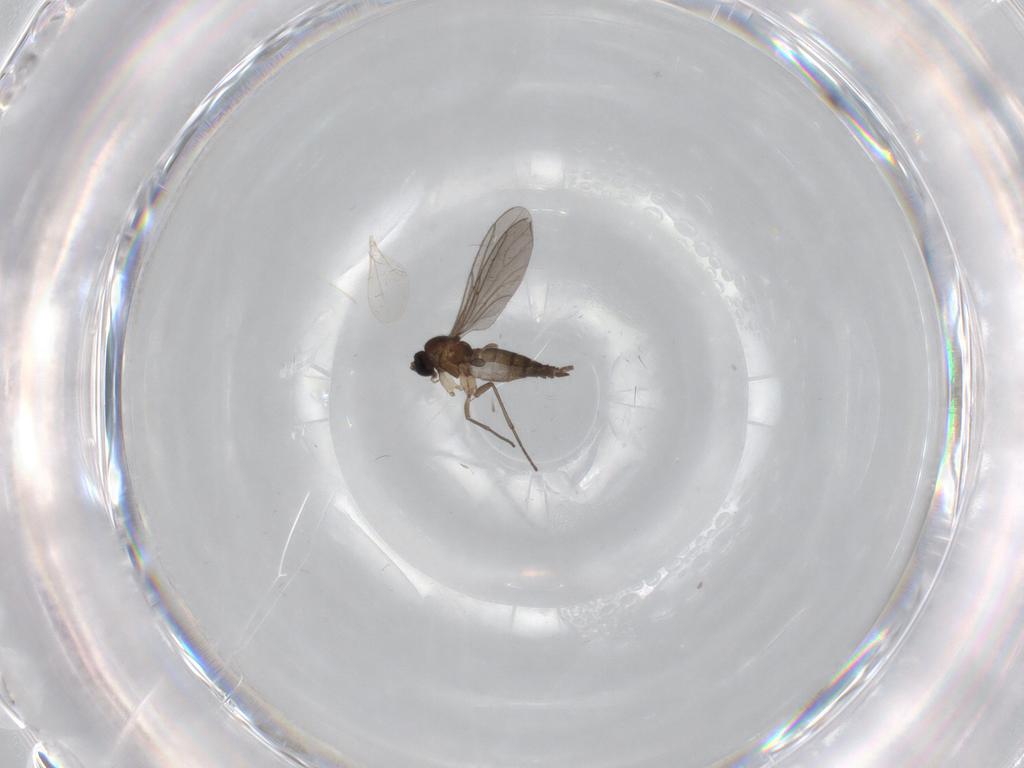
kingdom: Animalia
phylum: Arthropoda
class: Insecta
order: Diptera
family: Sciaridae
